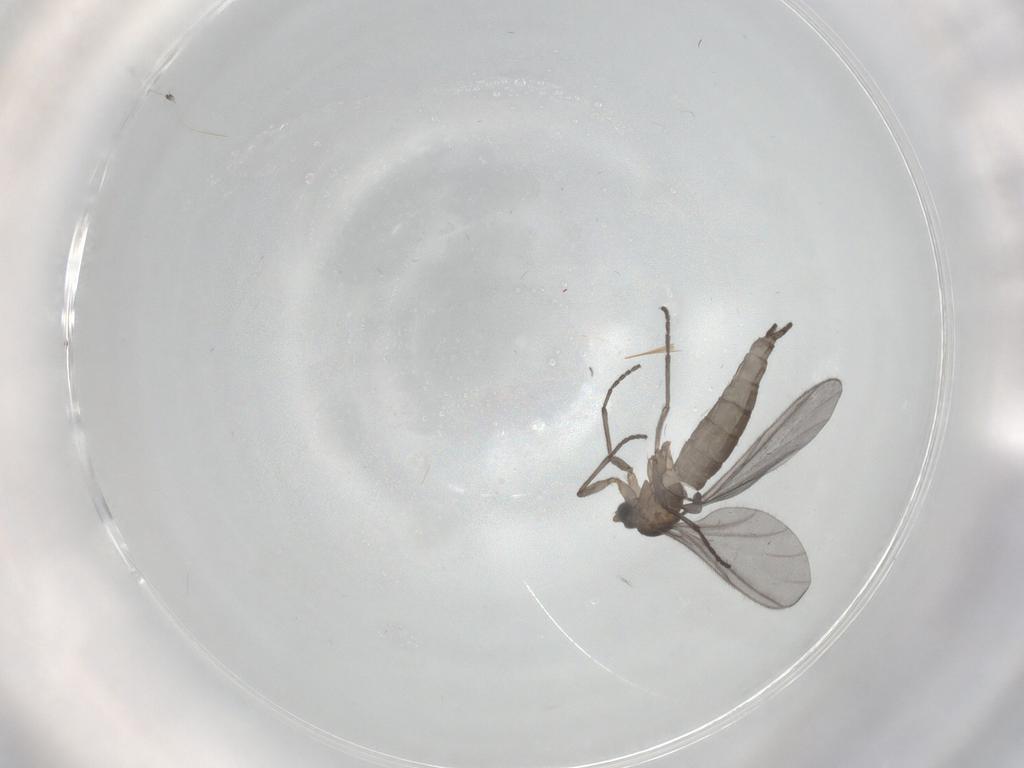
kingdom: Animalia
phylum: Arthropoda
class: Insecta
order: Diptera
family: Sciaridae
